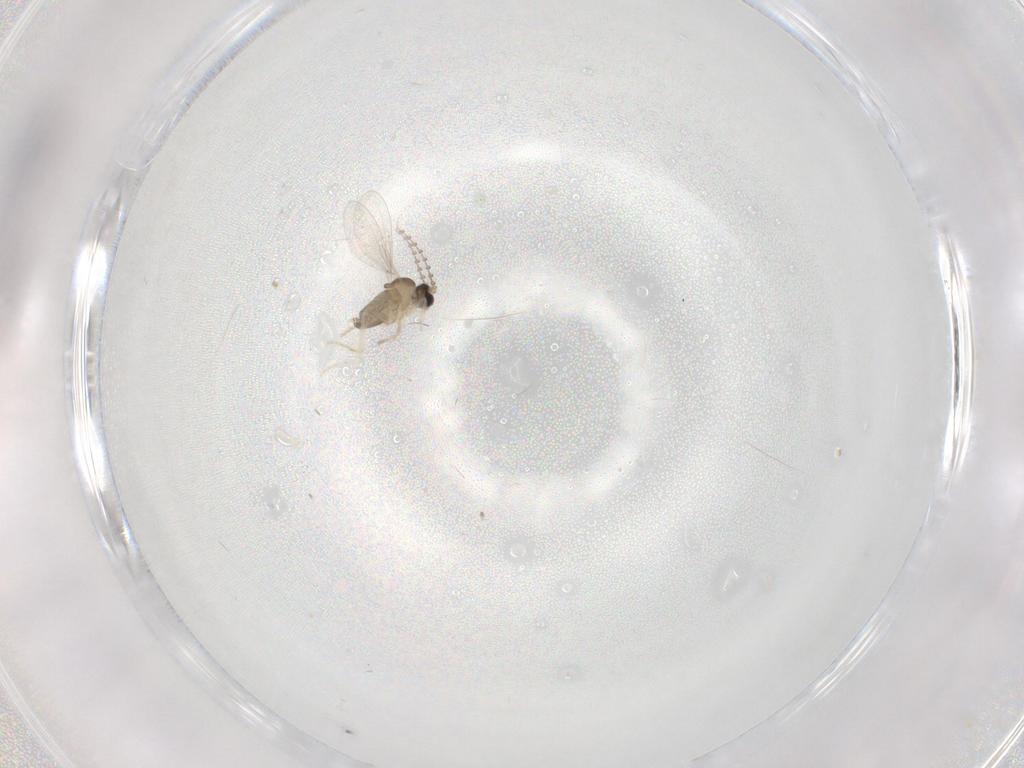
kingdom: Animalia
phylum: Arthropoda
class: Insecta
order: Diptera
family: Cecidomyiidae
